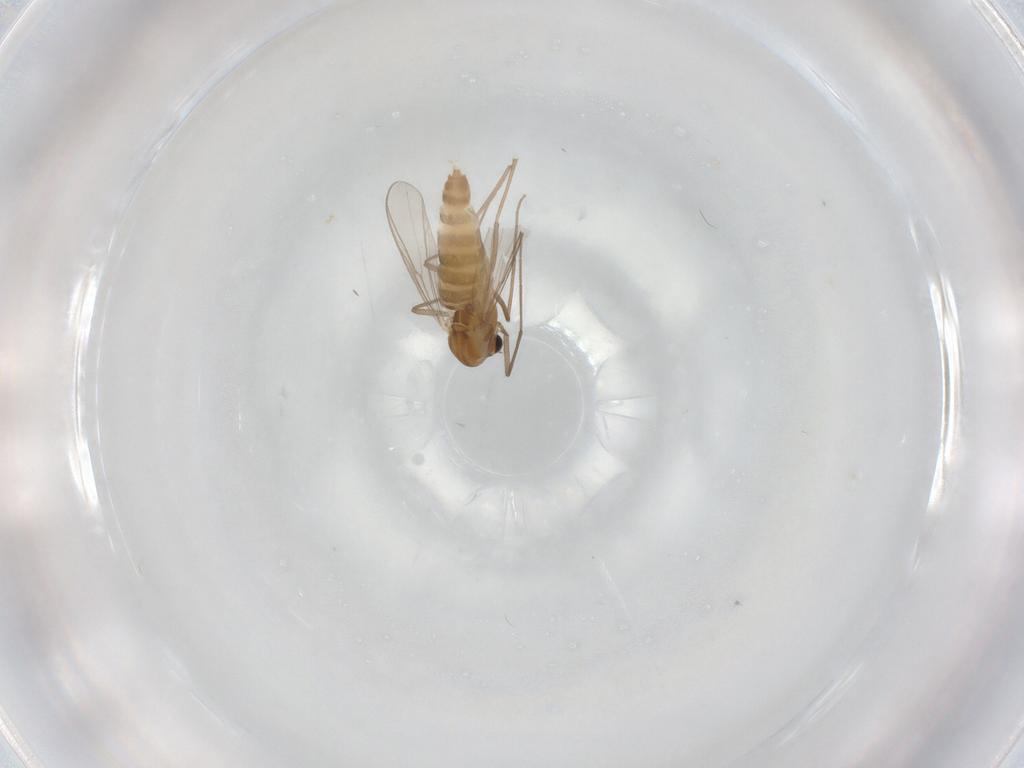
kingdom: Animalia
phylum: Arthropoda
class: Insecta
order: Diptera
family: Chironomidae
